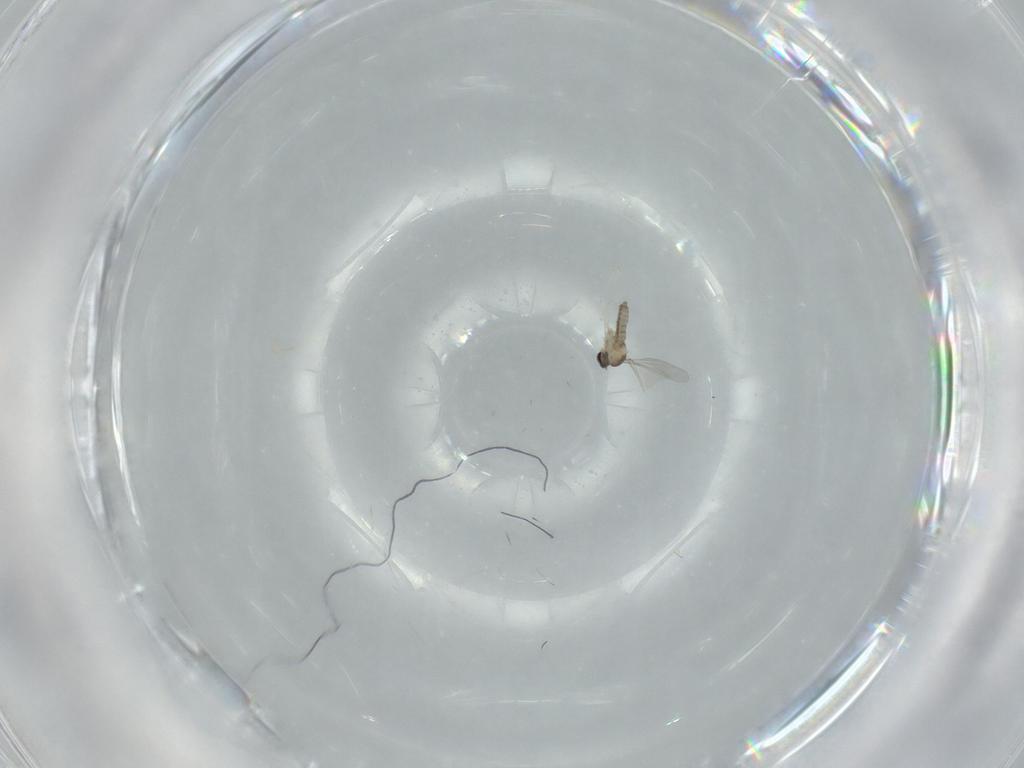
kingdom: Animalia
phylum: Arthropoda
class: Insecta
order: Diptera
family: Cecidomyiidae
